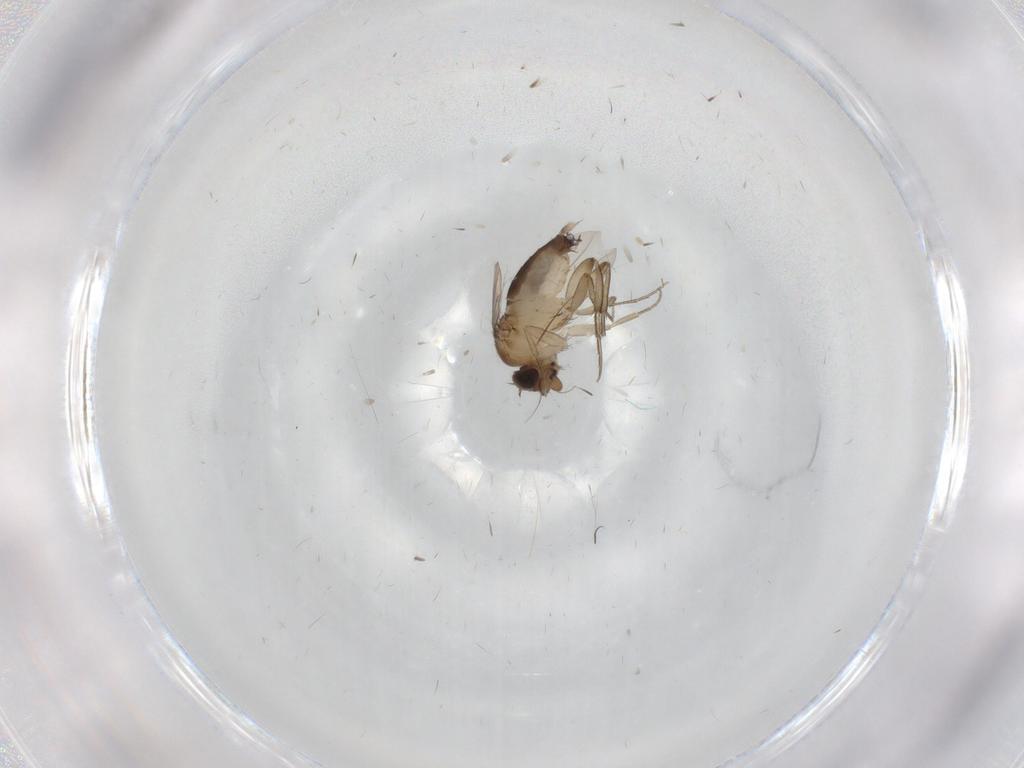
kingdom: Animalia
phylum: Arthropoda
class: Insecta
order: Diptera
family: Phoridae
